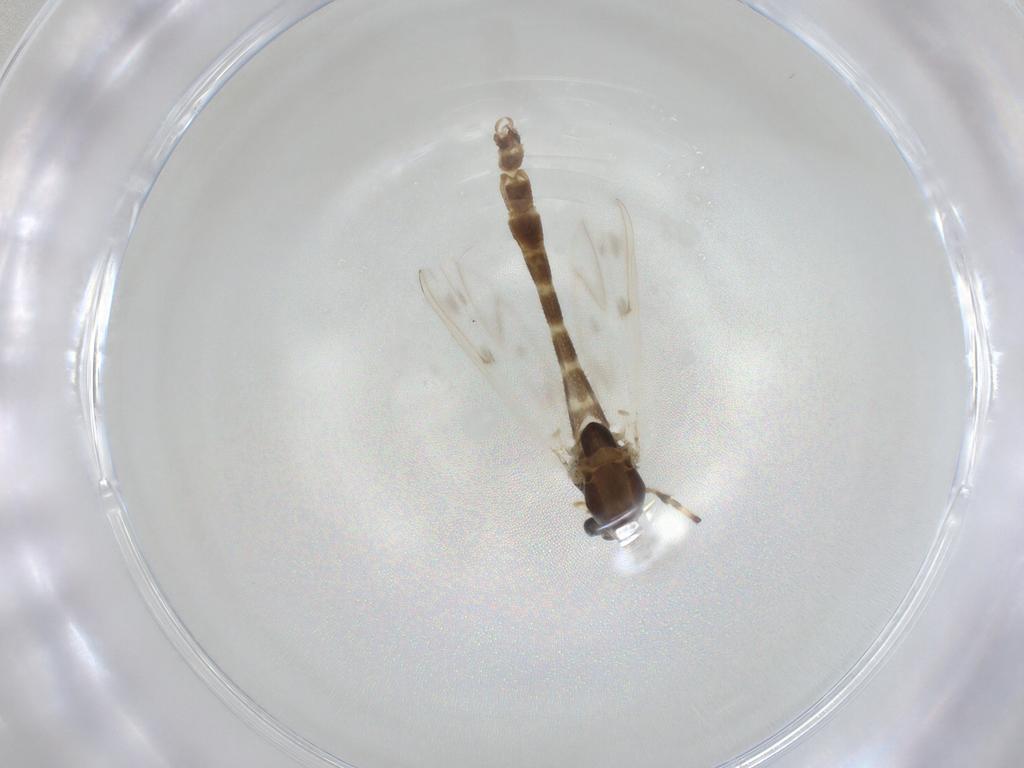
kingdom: Animalia
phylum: Arthropoda
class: Insecta
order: Diptera
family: Chironomidae
